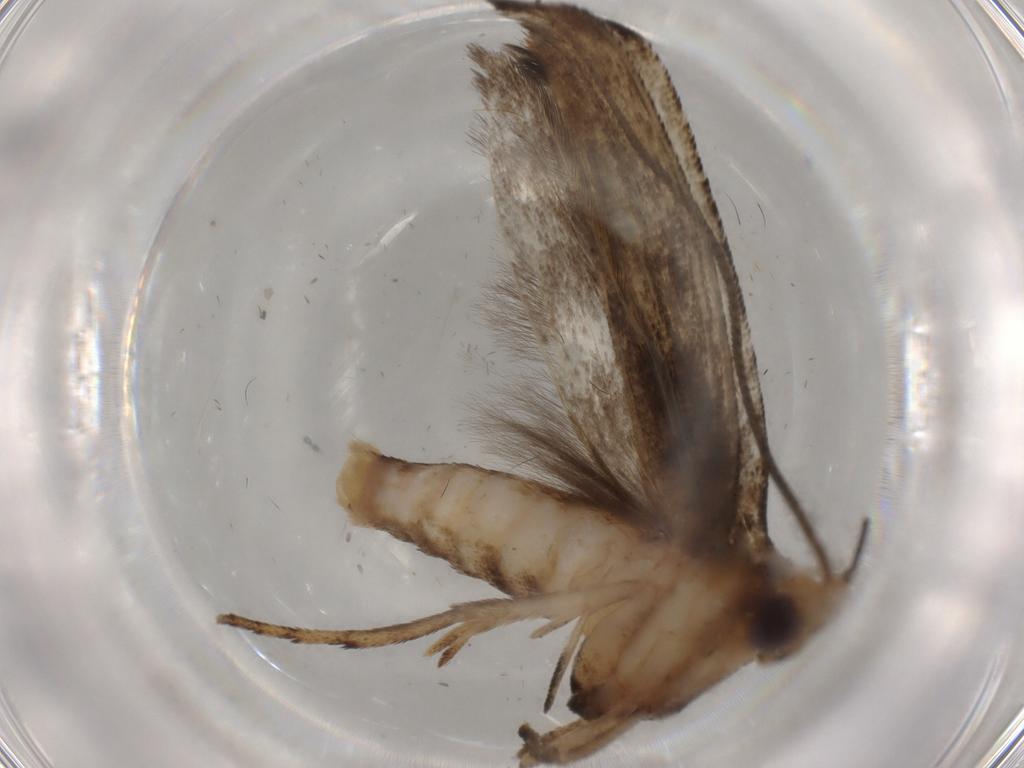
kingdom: Animalia
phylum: Arthropoda
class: Insecta
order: Lepidoptera
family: Yponomeutidae
